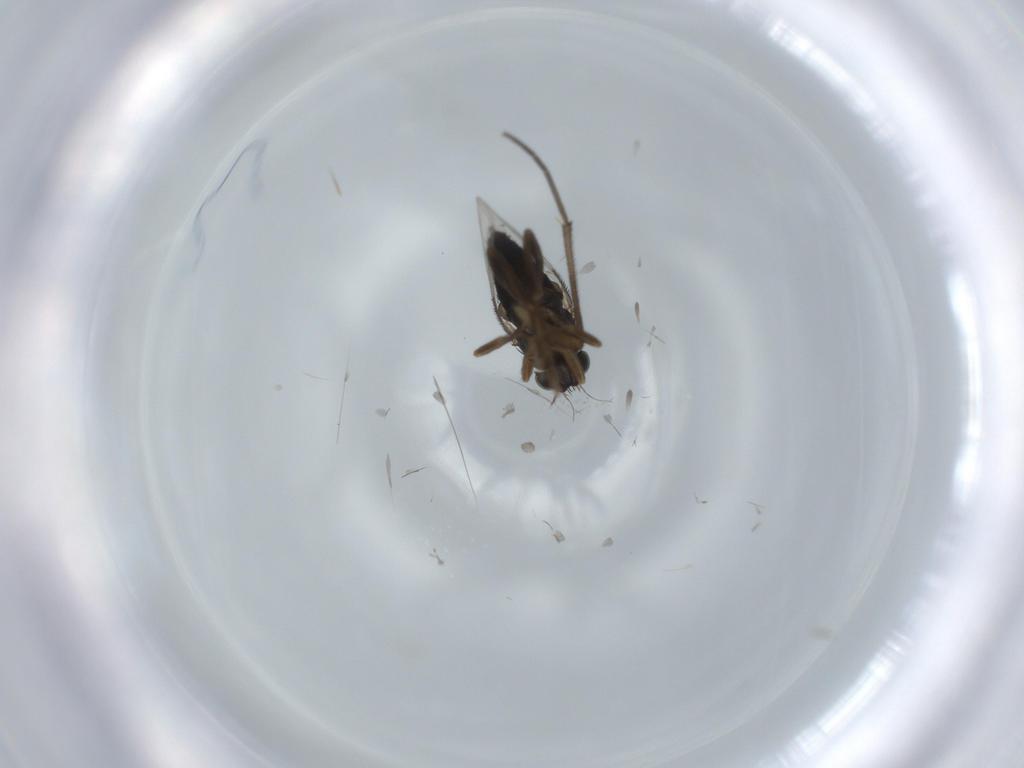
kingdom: Animalia
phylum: Arthropoda
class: Insecta
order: Diptera
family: Phoridae
